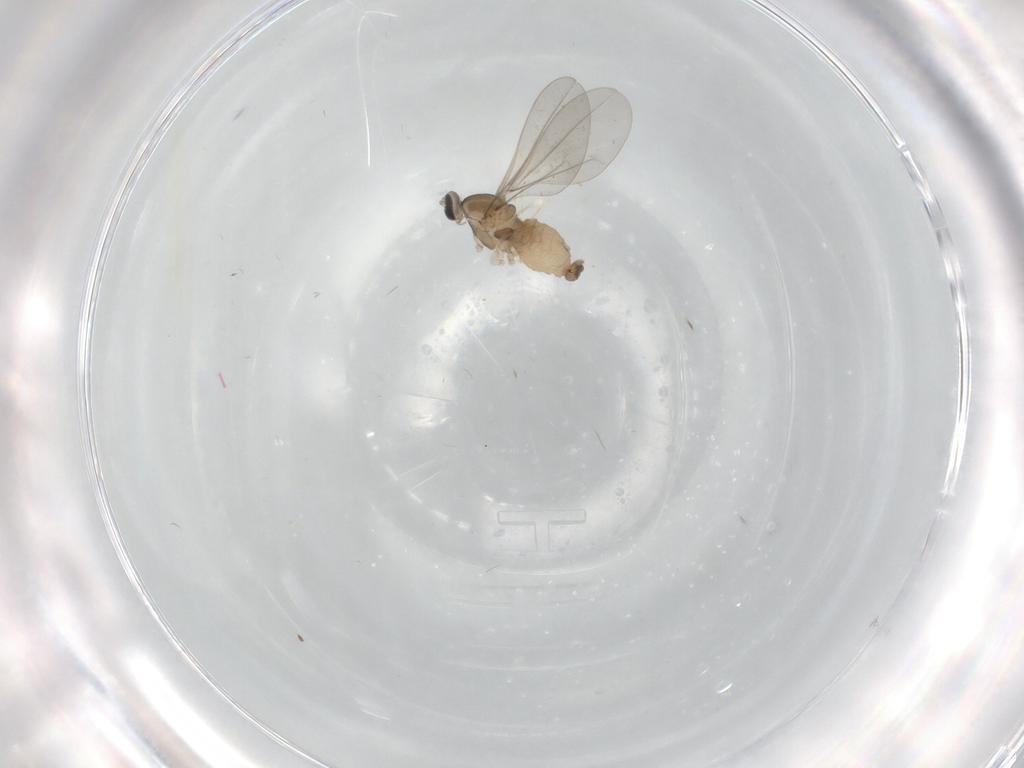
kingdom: Animalia
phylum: Arthropoda
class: Insecta
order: Diptera
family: Cecidomyiidae
